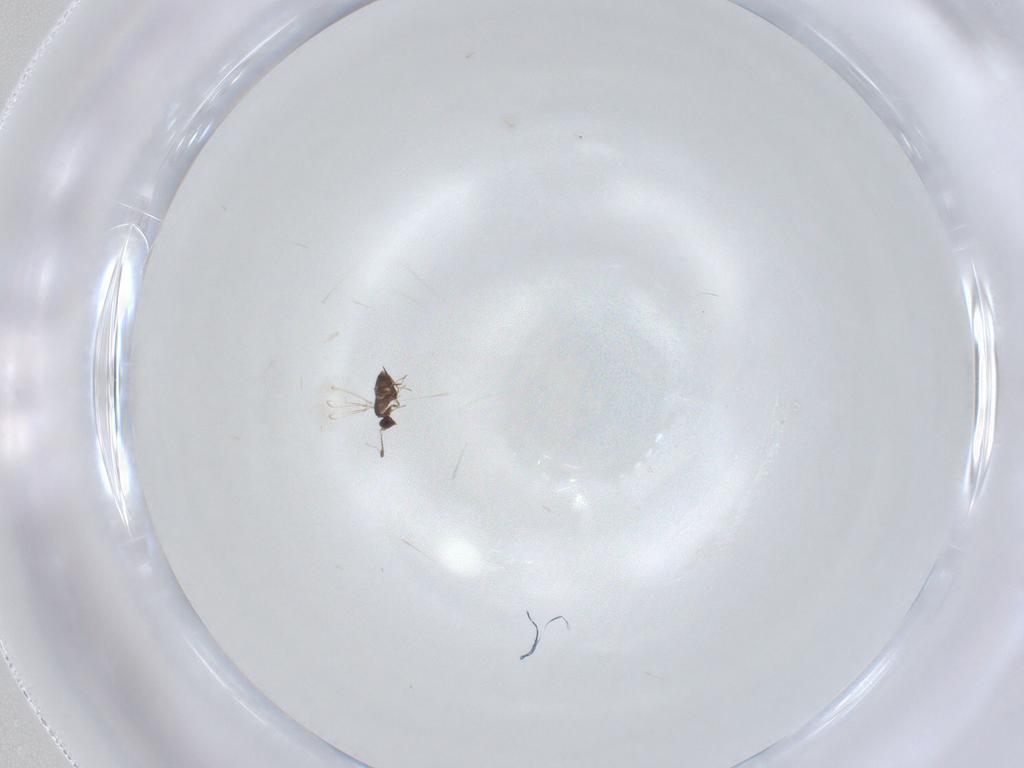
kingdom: Animalia
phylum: Arthropoda
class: Insecta
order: Hymenoptera
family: Mymaridae
